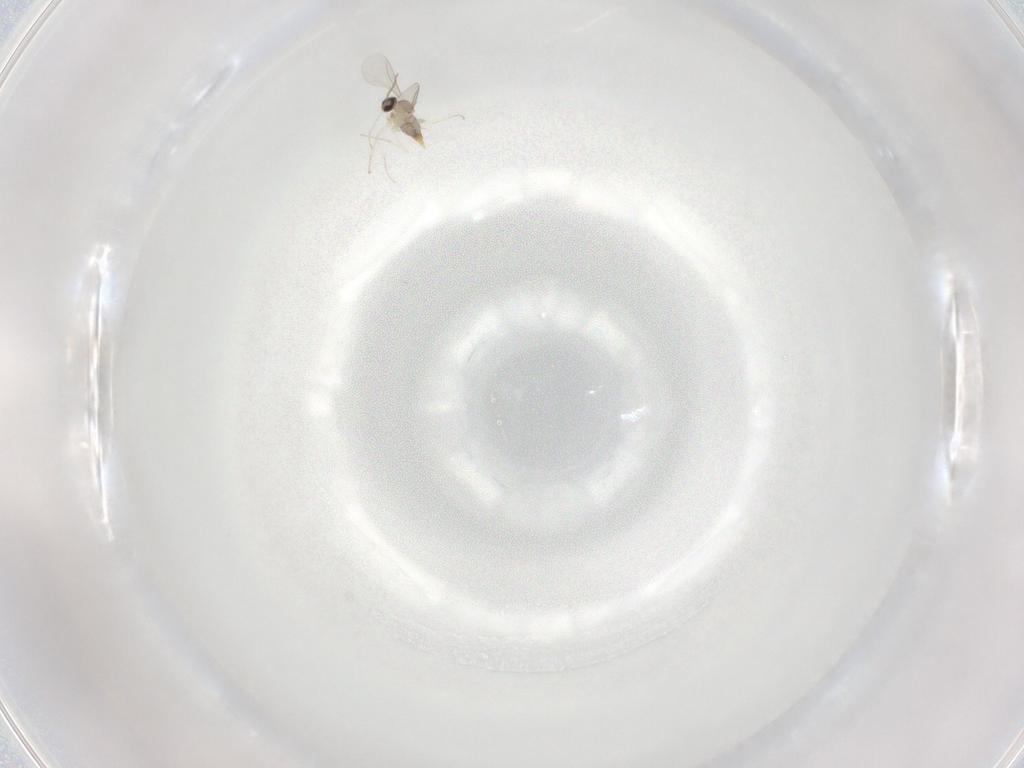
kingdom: Animalia
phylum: Arthropoda
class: Insecta
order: Diptera
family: Cecidomyiidae
